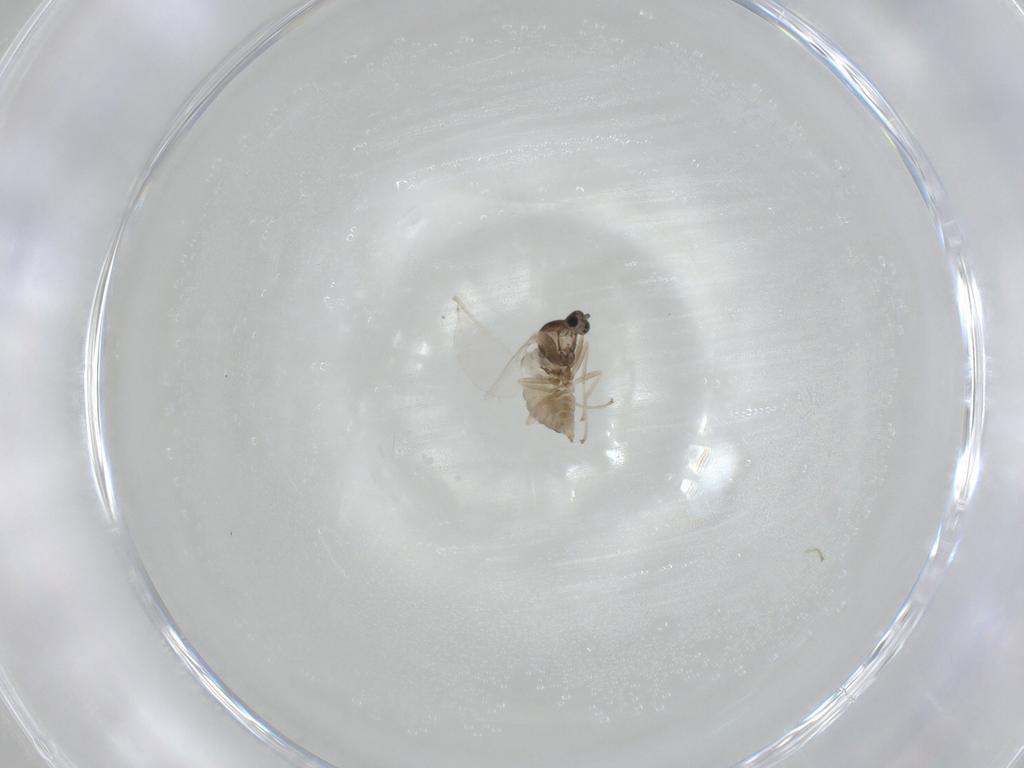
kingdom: Animalia
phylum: Arthropoda
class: Insecta
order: Diptera
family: Cecidomyiidae
